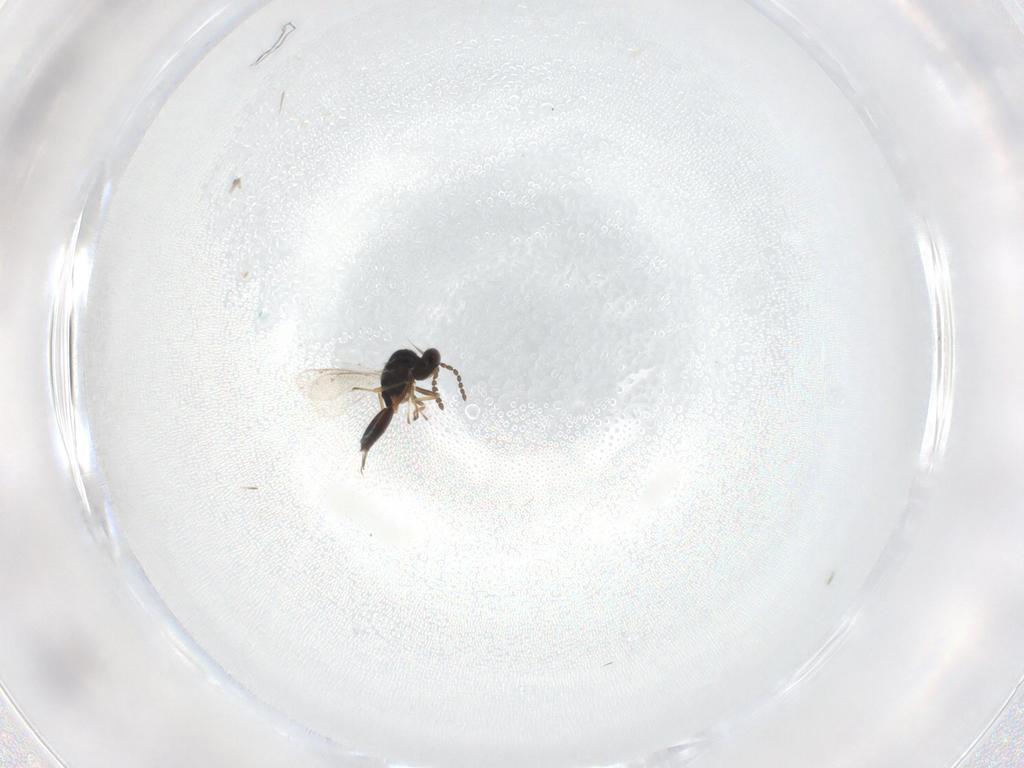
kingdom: Animalia
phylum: Arthropoda
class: Insecta
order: Hymenoptera
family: Eulophidae
